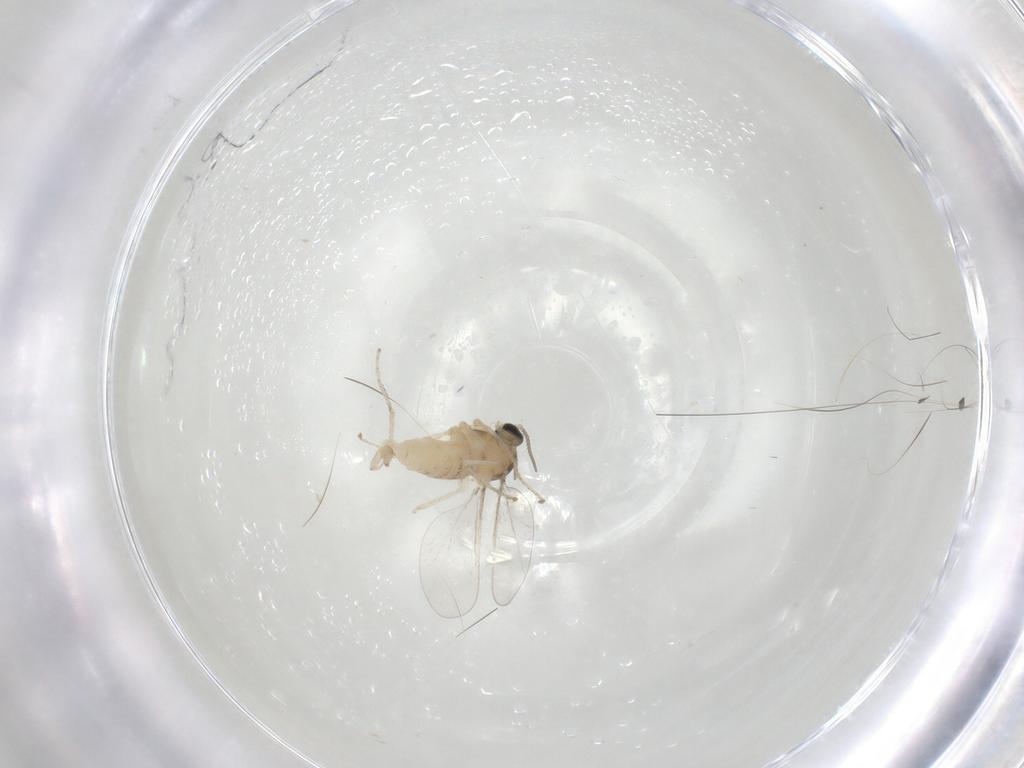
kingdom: Animalia
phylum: Arthropoda
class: Insecta
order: Diptera
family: Cecidomyiidae
